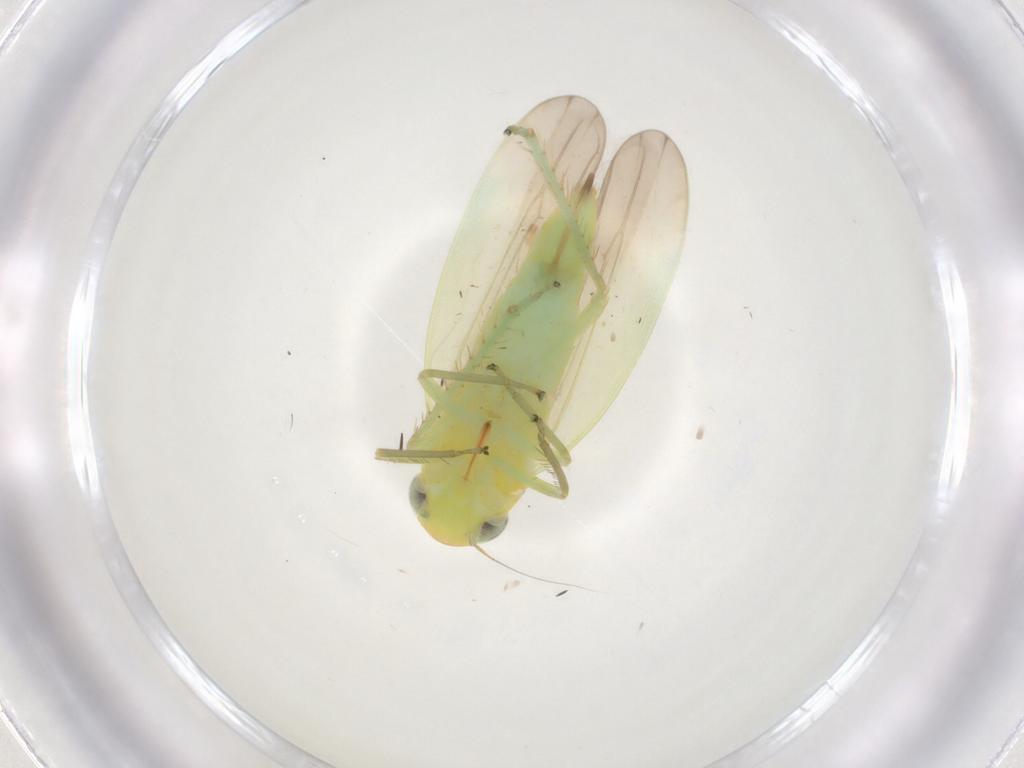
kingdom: Animalia
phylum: Arthropoda
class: Insecta
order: Hemiptera
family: Cicadellidae
